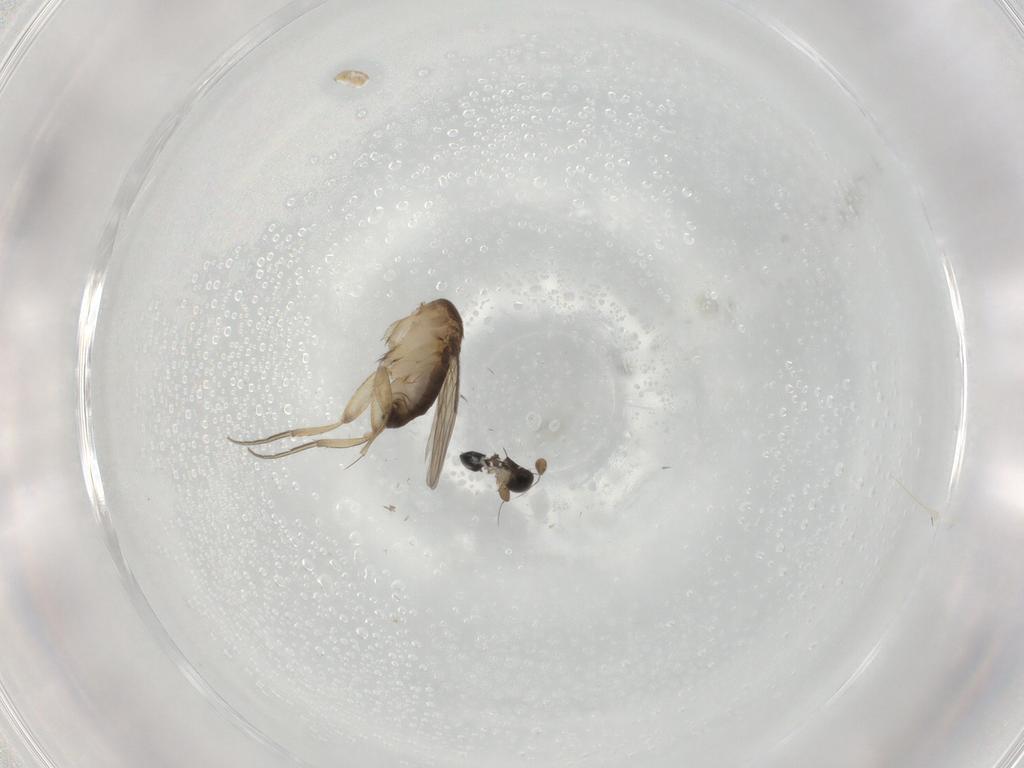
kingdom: Animalia
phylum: Arthropoda
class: Insecta
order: Diptera
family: Phoridae
